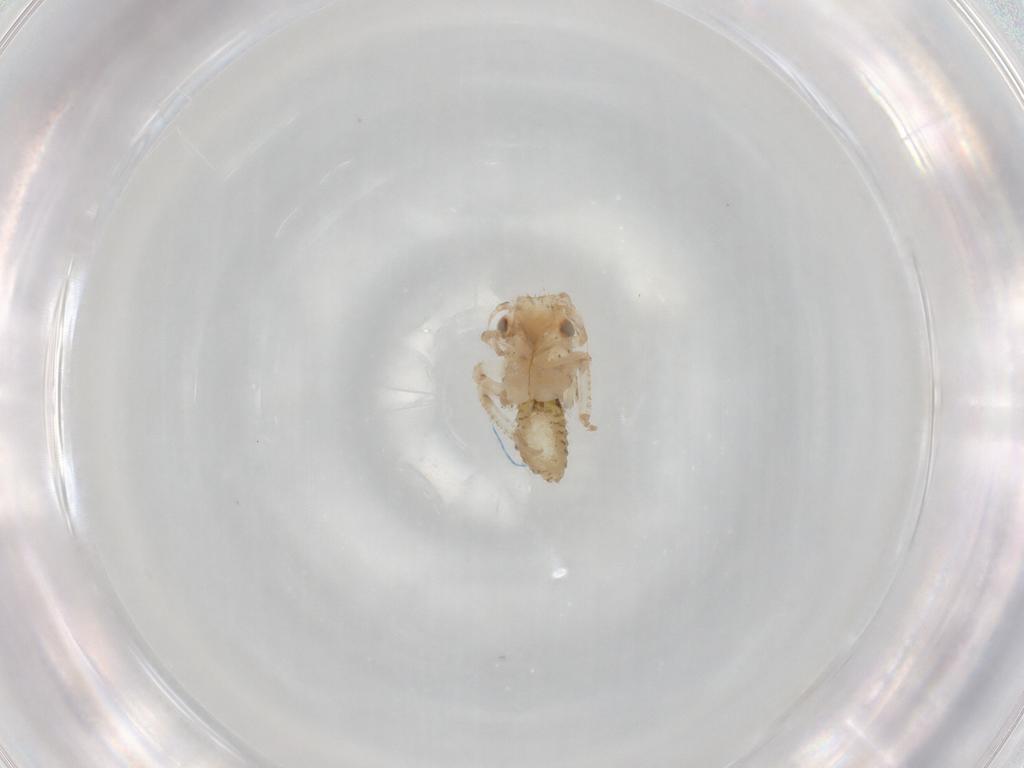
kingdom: Animalia
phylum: Arthropoda
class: Insecta
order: Hemiptera
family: Cicadellidae
